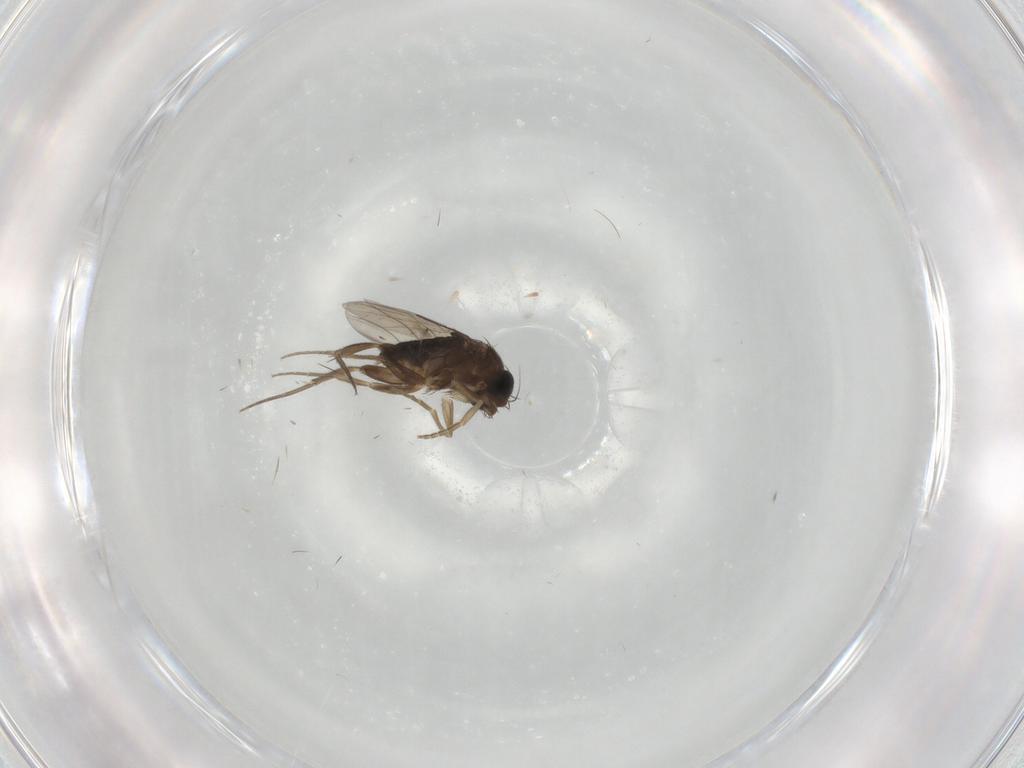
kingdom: Animalia
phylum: Arthropoda
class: Insecta
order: Diptera
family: Phoridae
